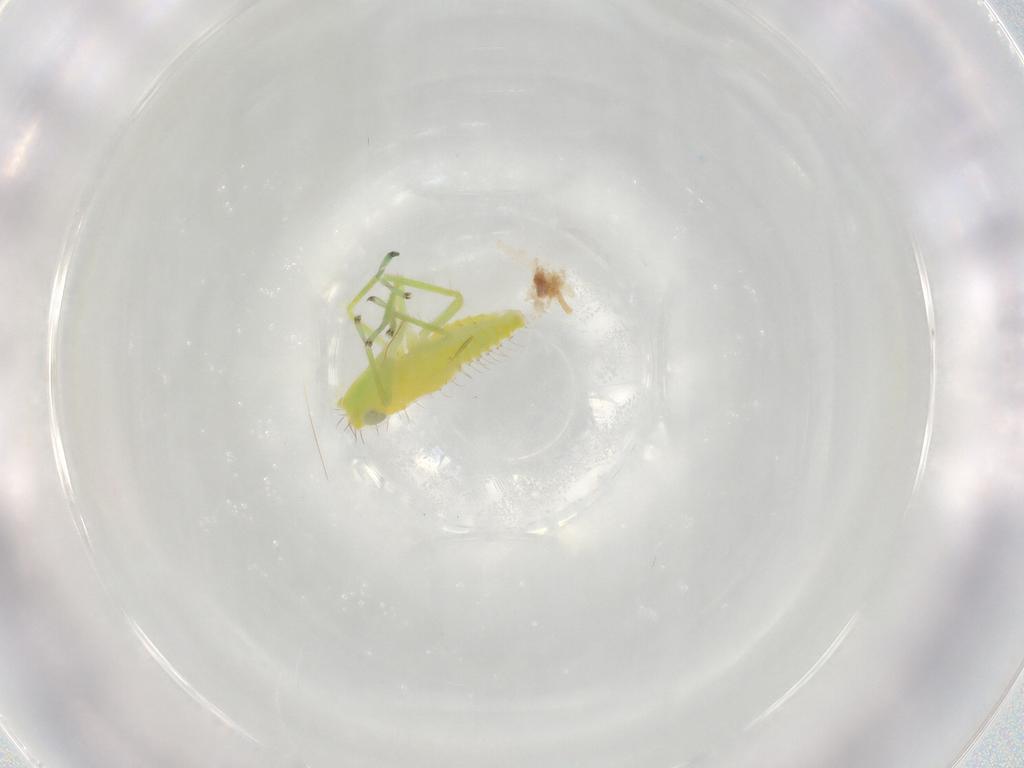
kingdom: Animalia
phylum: Arthropoda
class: Insecta
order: Hemiptera
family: Cicadellidae
